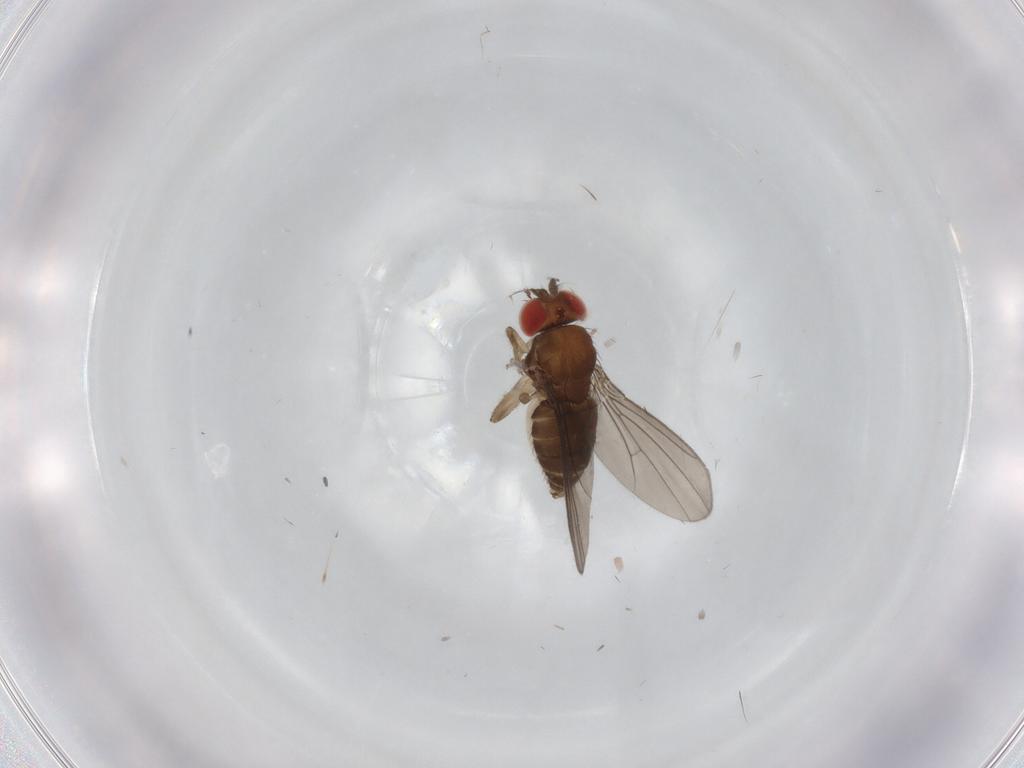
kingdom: Animalia
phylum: Arthropoda
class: Insecta
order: Diptera
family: Drosophilidae
